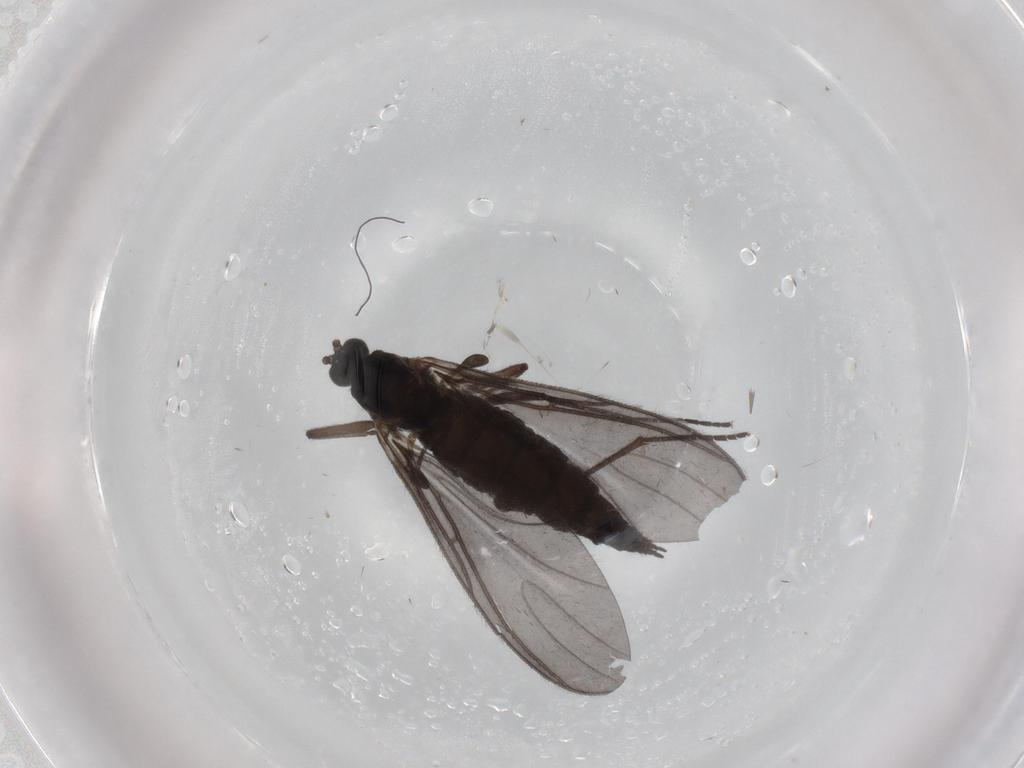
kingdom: Animalia
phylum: Arthropoda
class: Insecta
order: Diptera
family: Sciaridae
